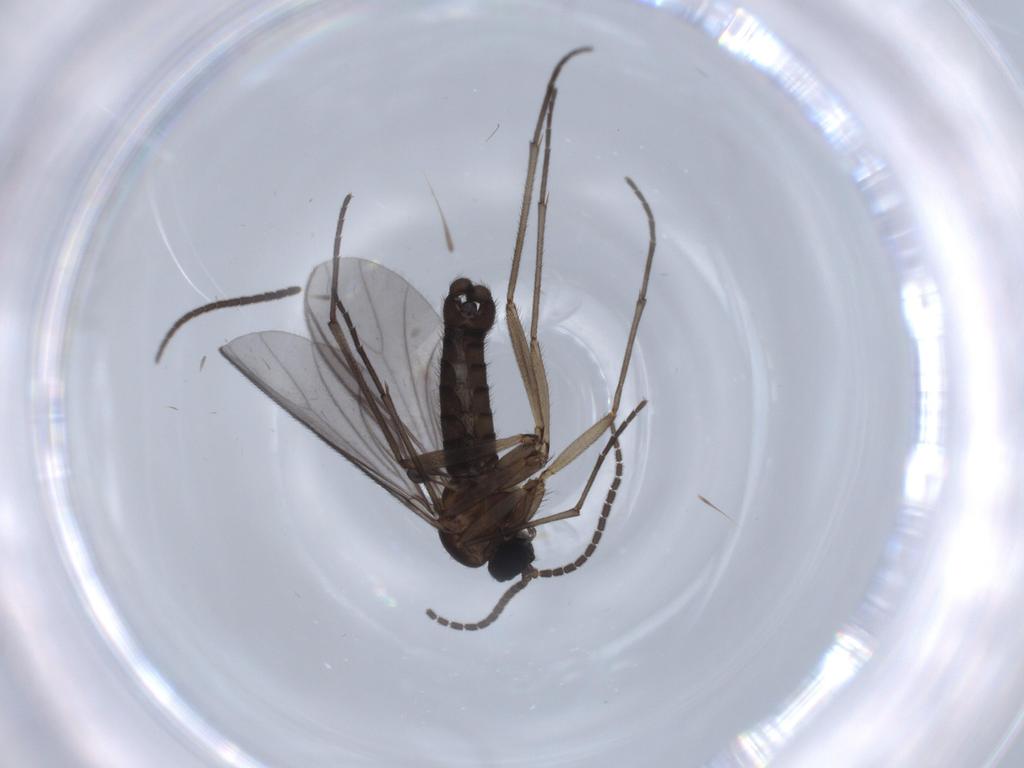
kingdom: Animalia
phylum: Arthropoda
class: Insecta
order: Diptera
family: Sciaridae
